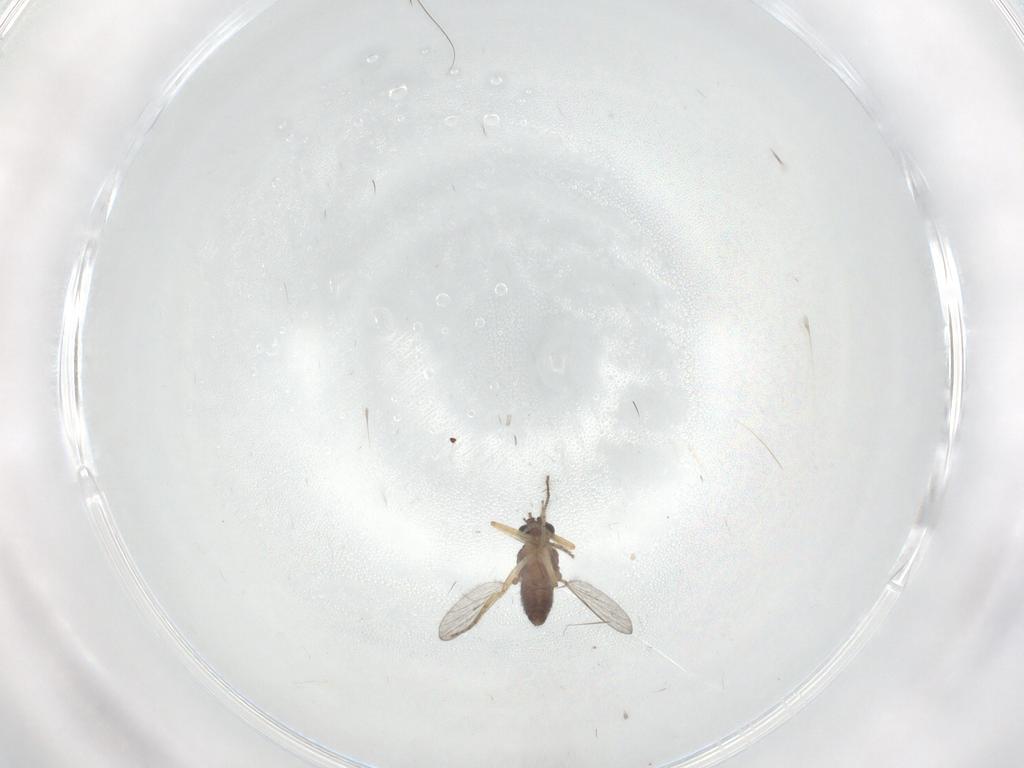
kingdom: Animalia
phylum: Arthropoda
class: Insecta
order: Diptera
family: Ceratopogonidae
